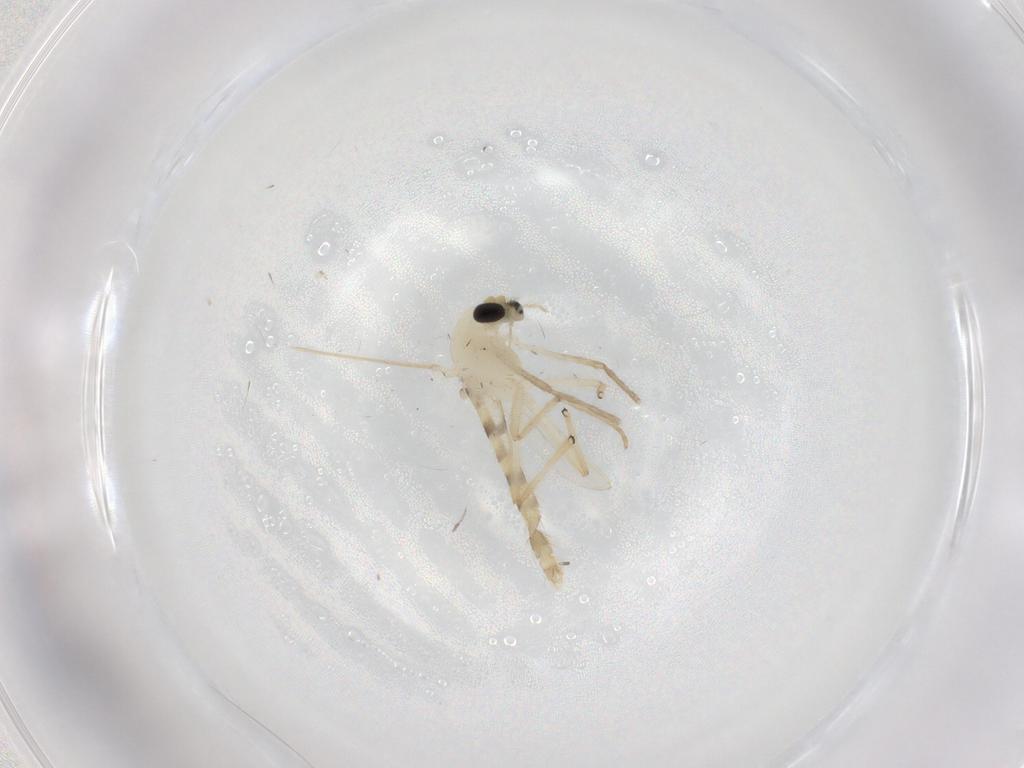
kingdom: Animalia
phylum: Arthropoda
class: Insecta
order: Diptera
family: Chironomidae
